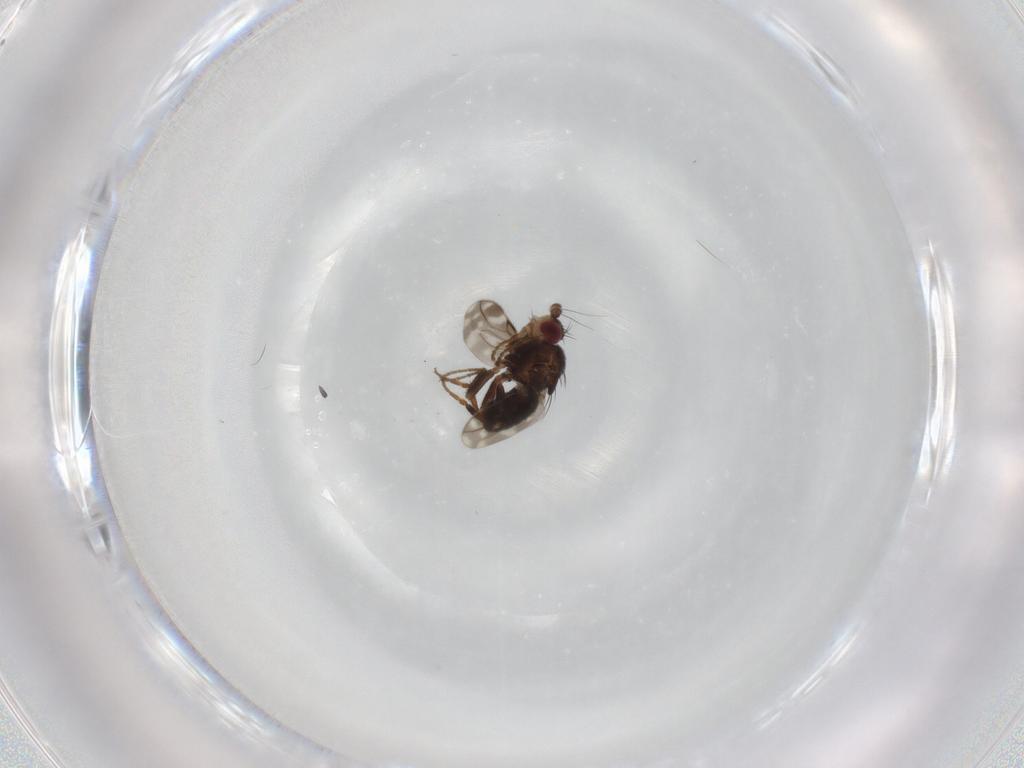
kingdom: Animalia
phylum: Arthropoda
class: Insecta
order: Diptera
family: Sphaeroceridae
